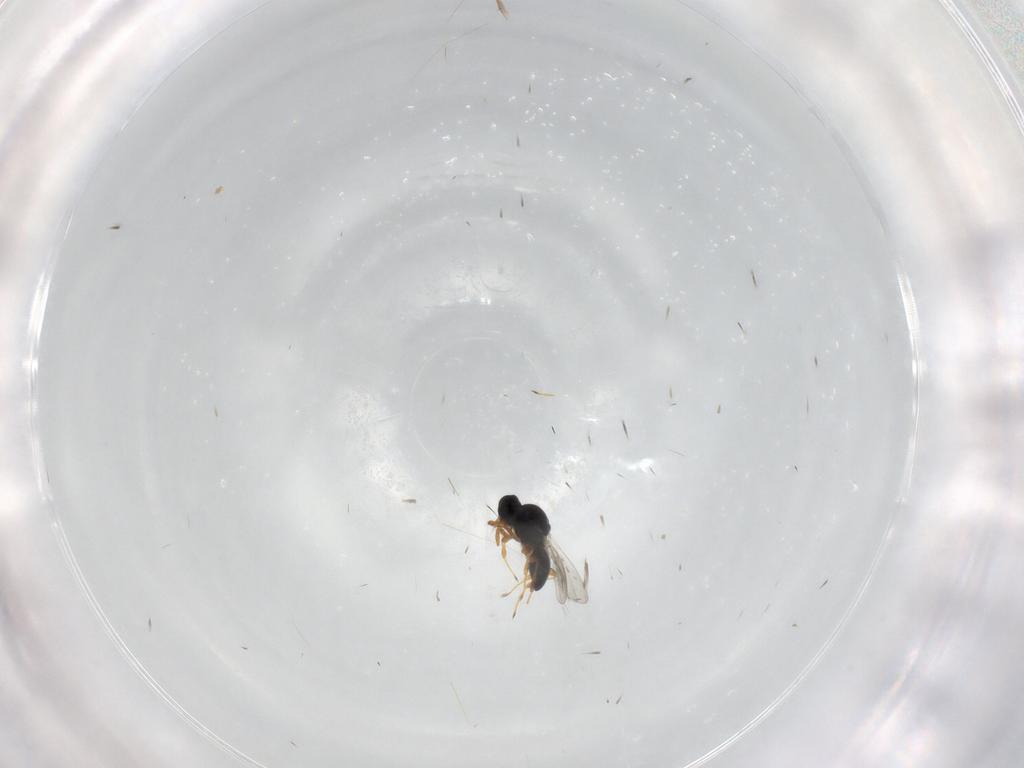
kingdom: Animalia
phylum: Arthropoda
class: Insecta
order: Hymenoptera
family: Platygastridae
